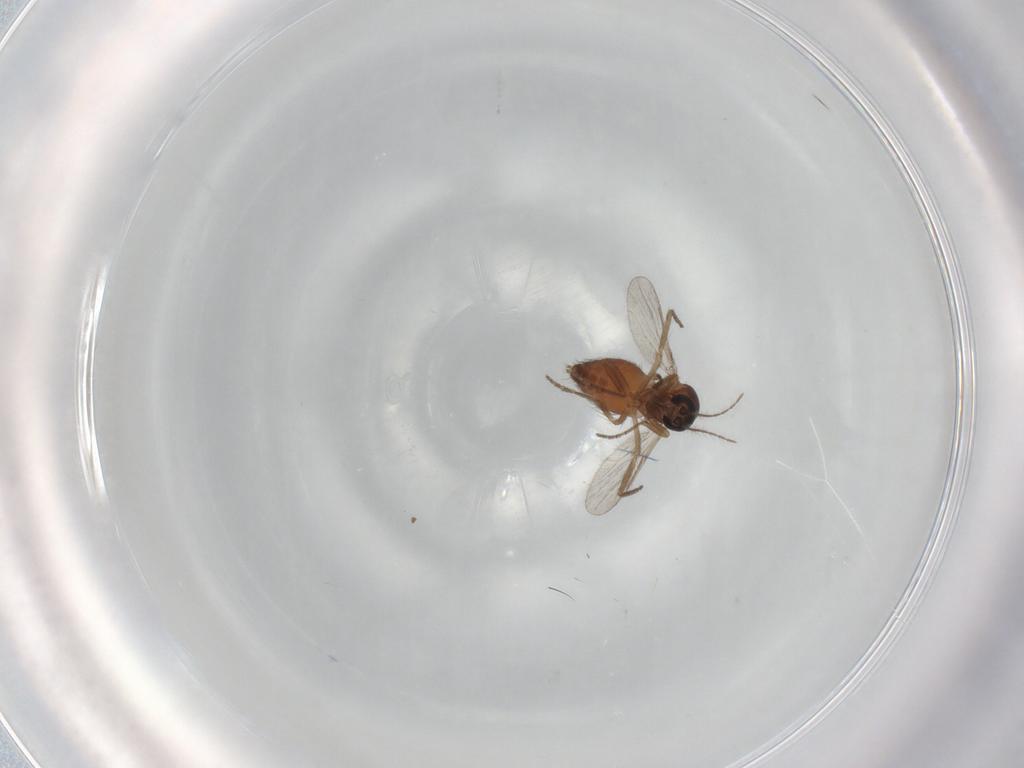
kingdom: Animalia
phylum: Arthropoda
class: Insecta
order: Diptera
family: Ceratopogonidae
